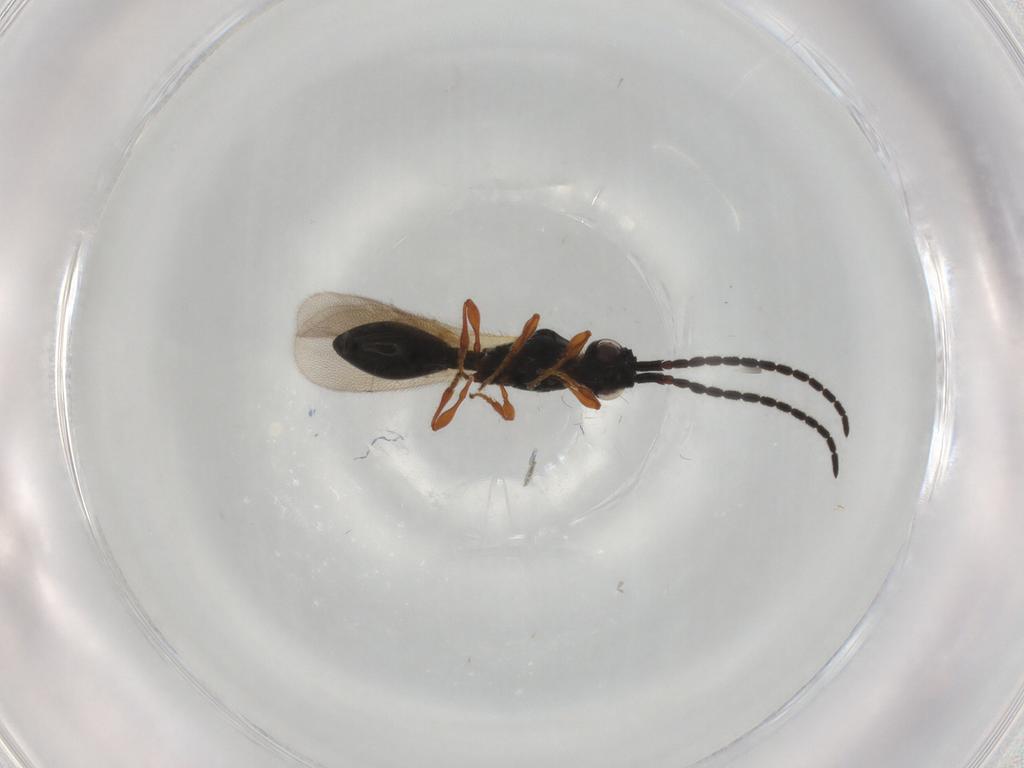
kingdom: Animalia
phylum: Arthropoda
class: Insecta
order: Hymenoptera
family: Diapriidae
